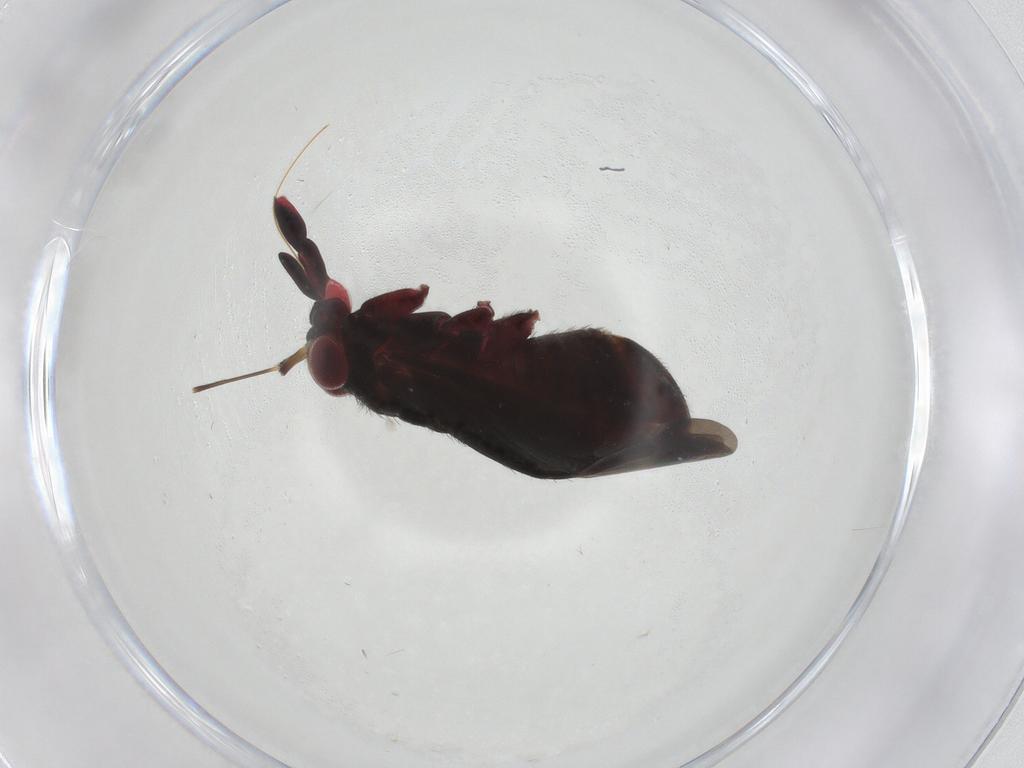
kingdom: Animalia
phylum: Arthropoda
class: Insecta
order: Hemiptera
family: Miridae
